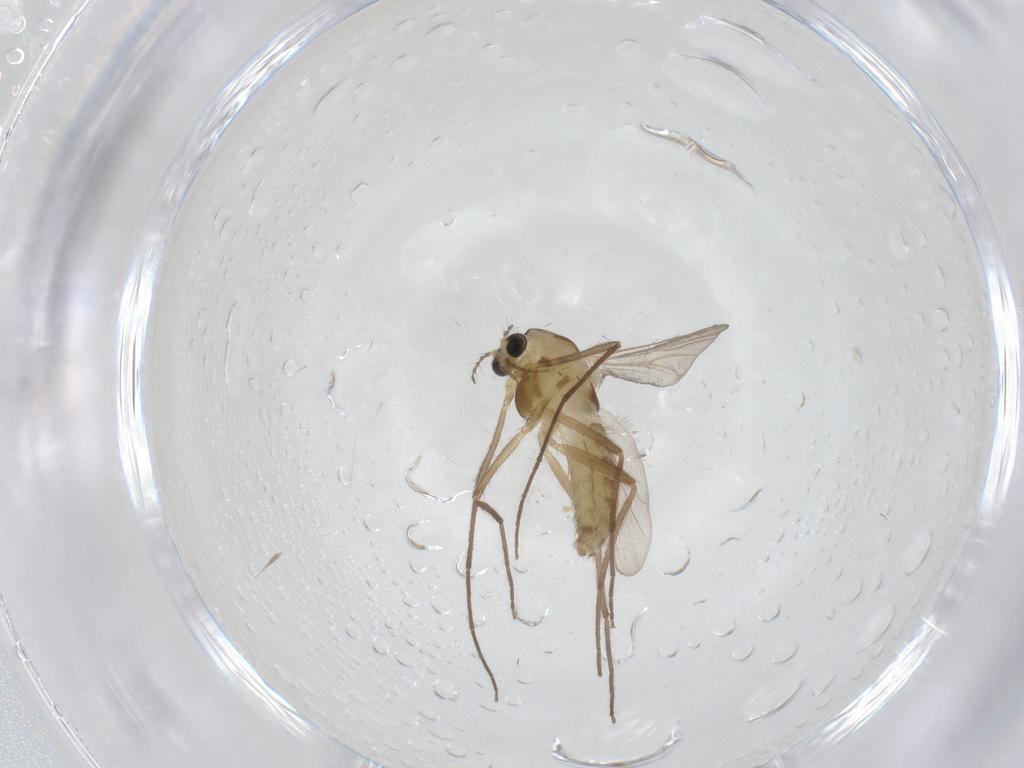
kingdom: Animalia
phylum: Arthropoda
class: Insecta
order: Diptera
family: Chironomidae
